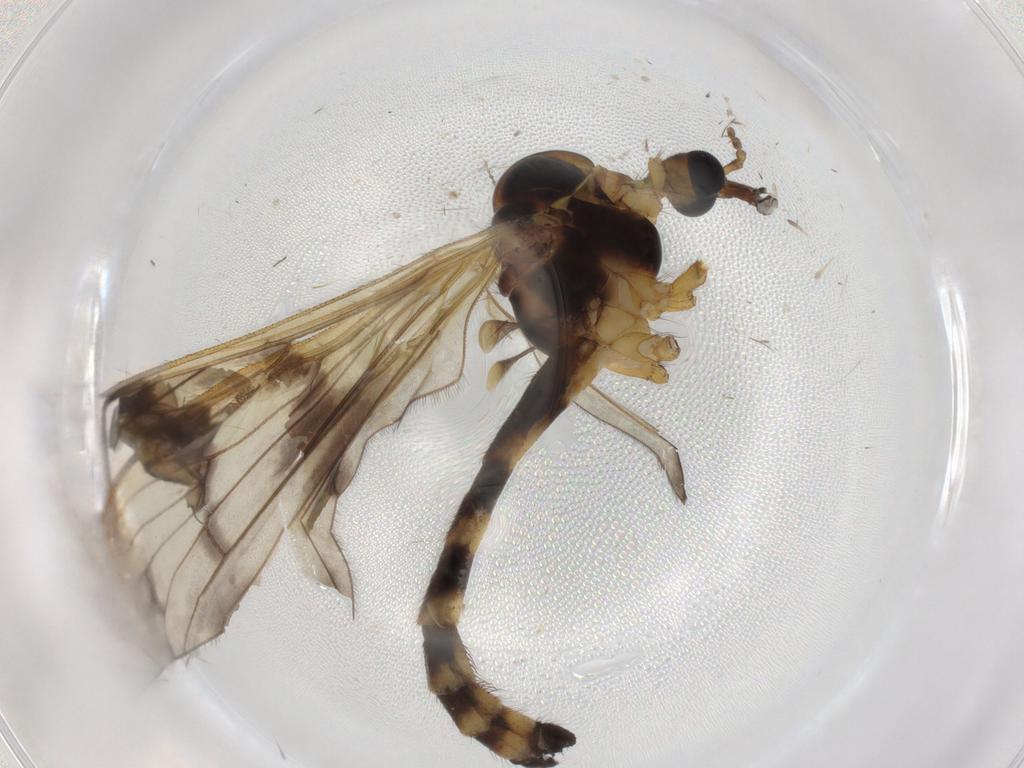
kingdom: Animalia
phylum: Arthropoda
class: Insecta
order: Diptera
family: Limoniidae
